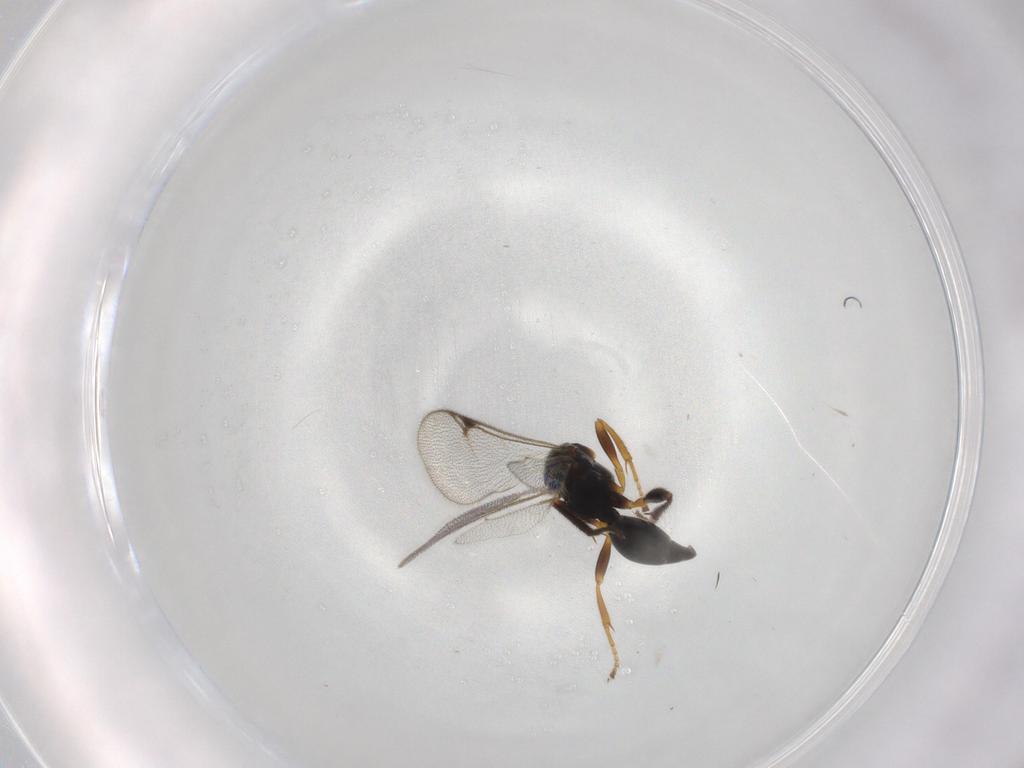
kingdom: Animalia
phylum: Arthropoda
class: Insecta
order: Hymenoptera
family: Proctotrupidae
